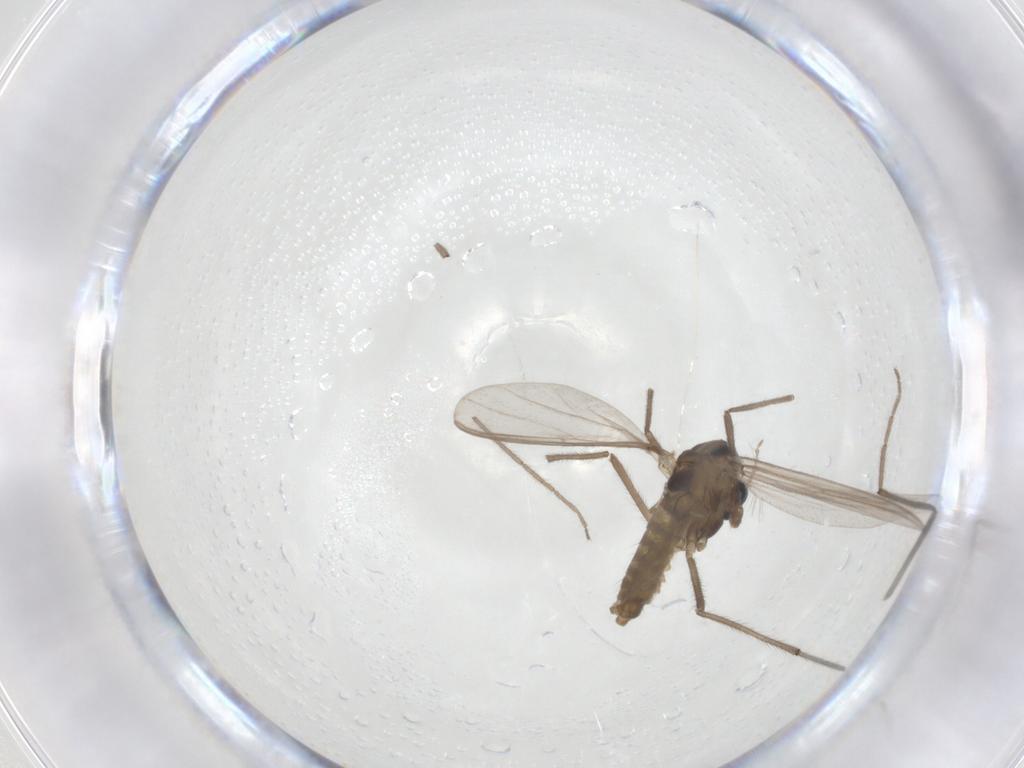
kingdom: Animalia
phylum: Arthropoda
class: Insecta
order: Diptera
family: Chironomidae
